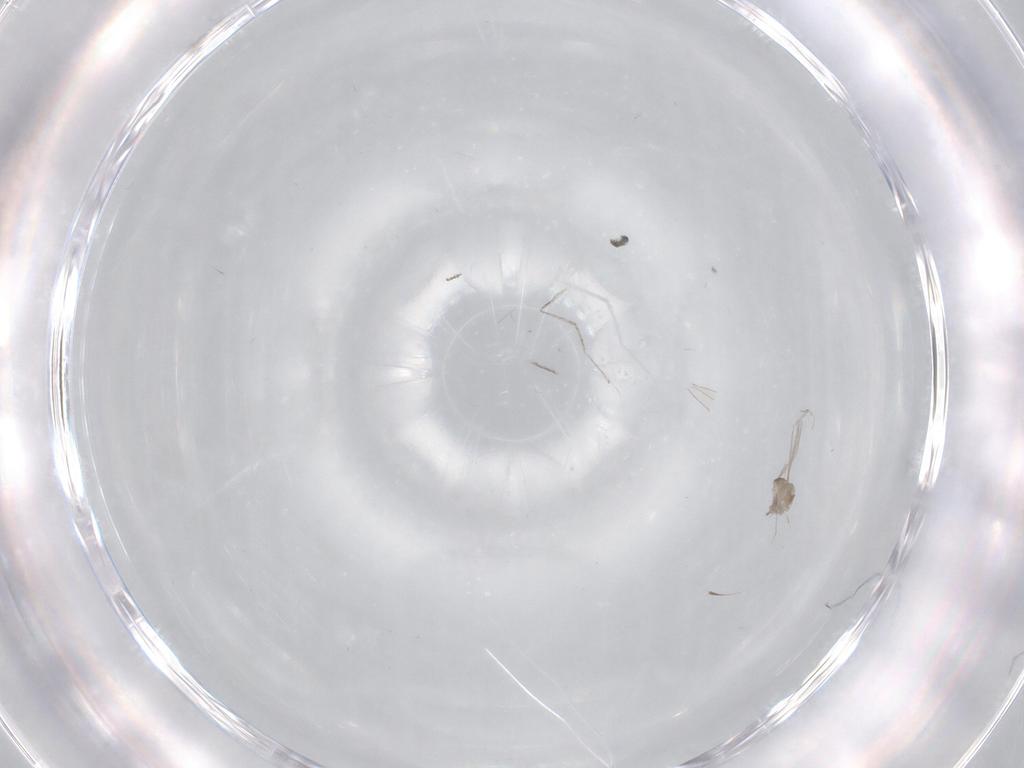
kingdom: Animalia
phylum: Arthropoda
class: Insecta
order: Diptera
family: Cecidomyiidae
